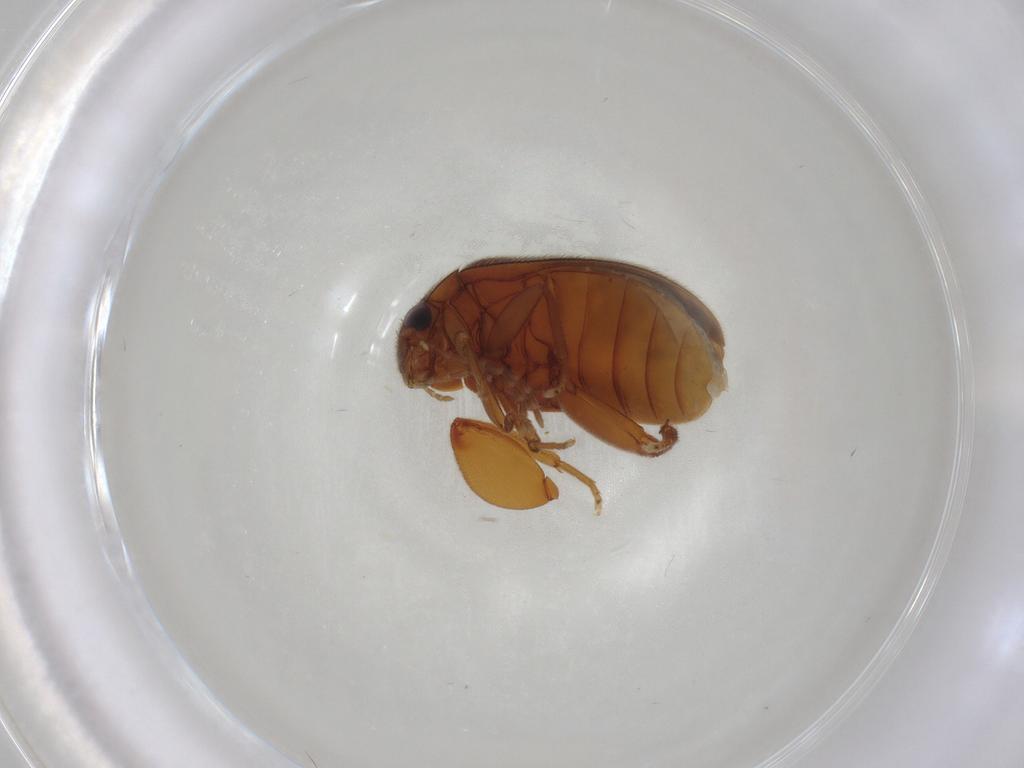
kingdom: Animalia
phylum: Arthropoda
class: Insecta
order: Coleoptera
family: Scirtidae
